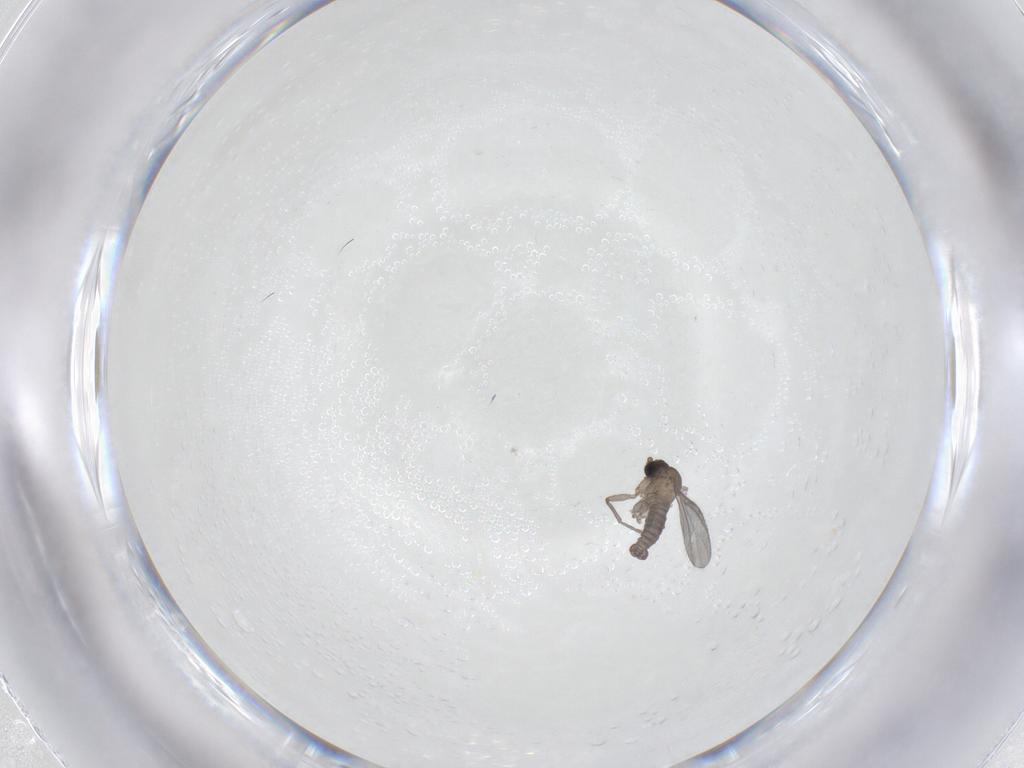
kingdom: Animalia
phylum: Arthropoda
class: Insecta
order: Diptera
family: Sciaridae
